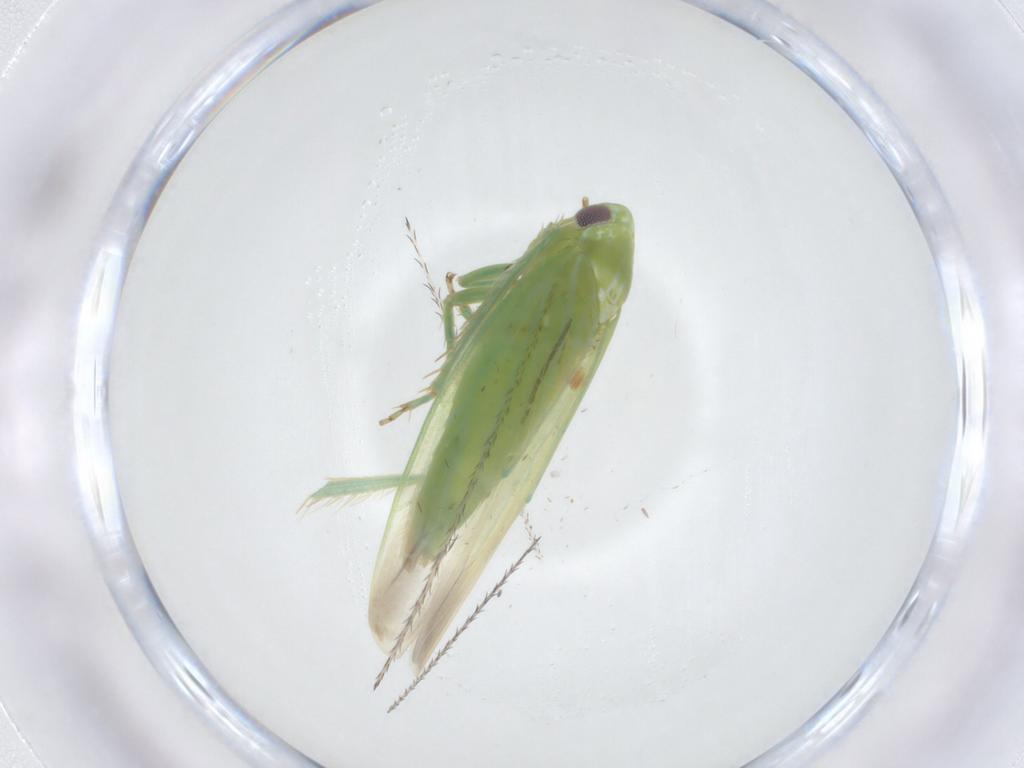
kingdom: Animalia
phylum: Arthropoda
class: Insecta
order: Hemiptera
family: Cicadellidae
